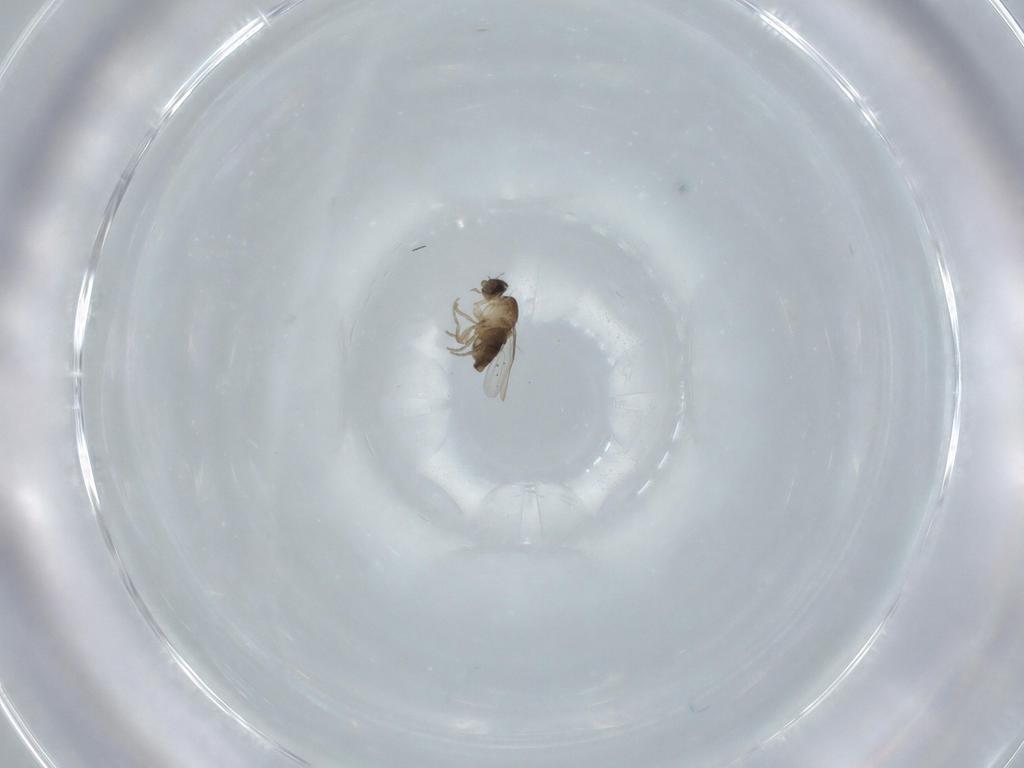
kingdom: Animalia
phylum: Arthropoda
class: Insecta
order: Diptera
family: Phoridae
